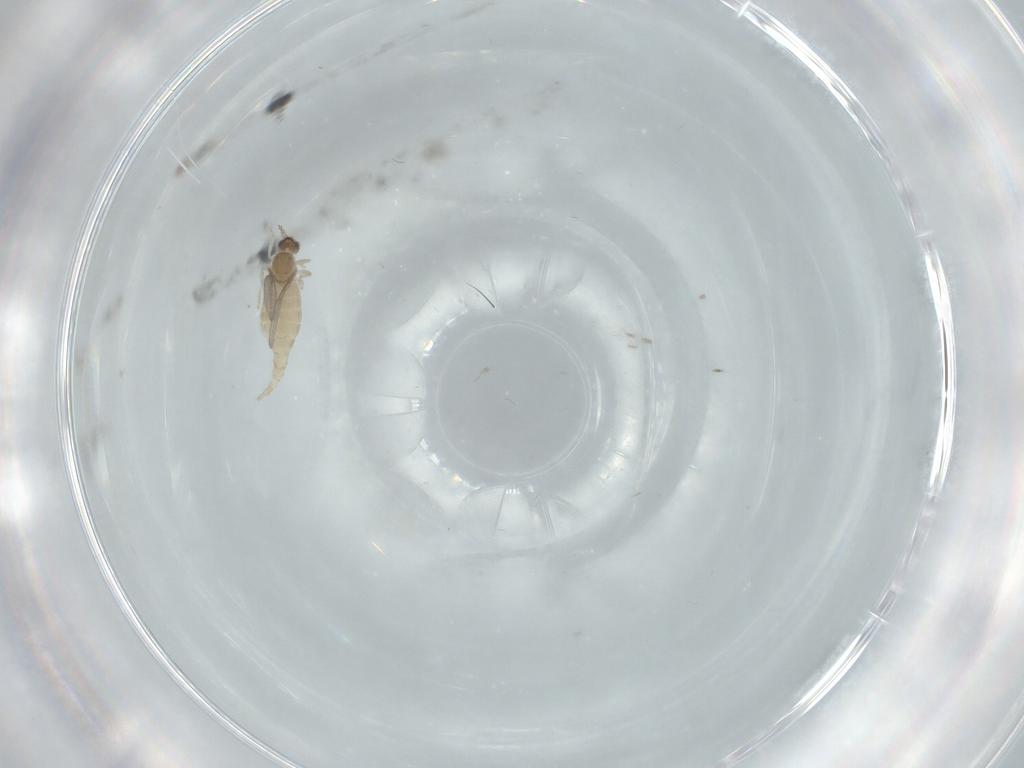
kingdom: Animalia
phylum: Arthropoda
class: Insecta
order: Diptera
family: Cecidomyiidae
